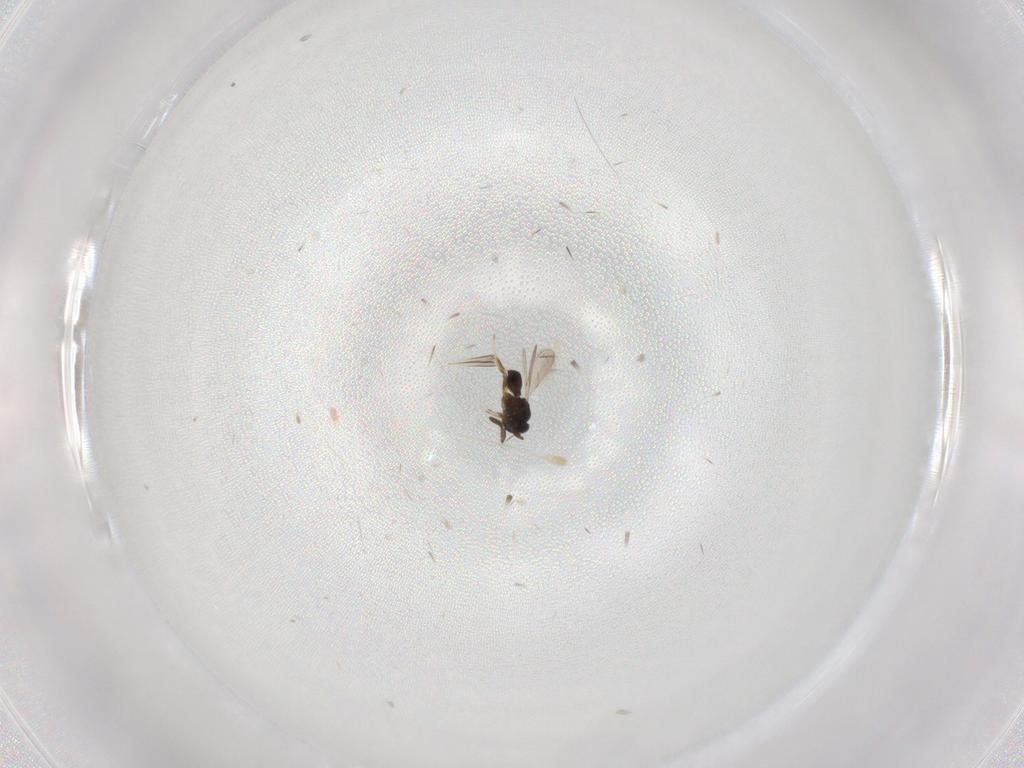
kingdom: Animalia
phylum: Arthropoda
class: Insecta
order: Hymenoptera
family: Scelionidae
